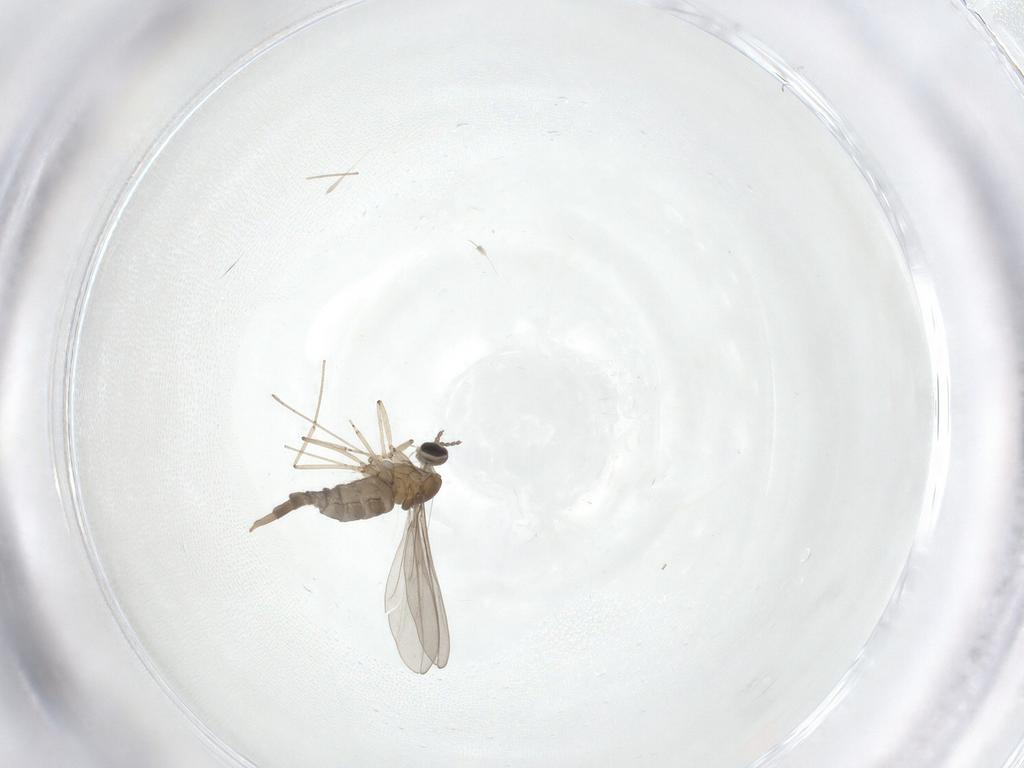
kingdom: Animalia
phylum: Arthropoda
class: Insecta
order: Diptera
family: Cecidomyiidae
